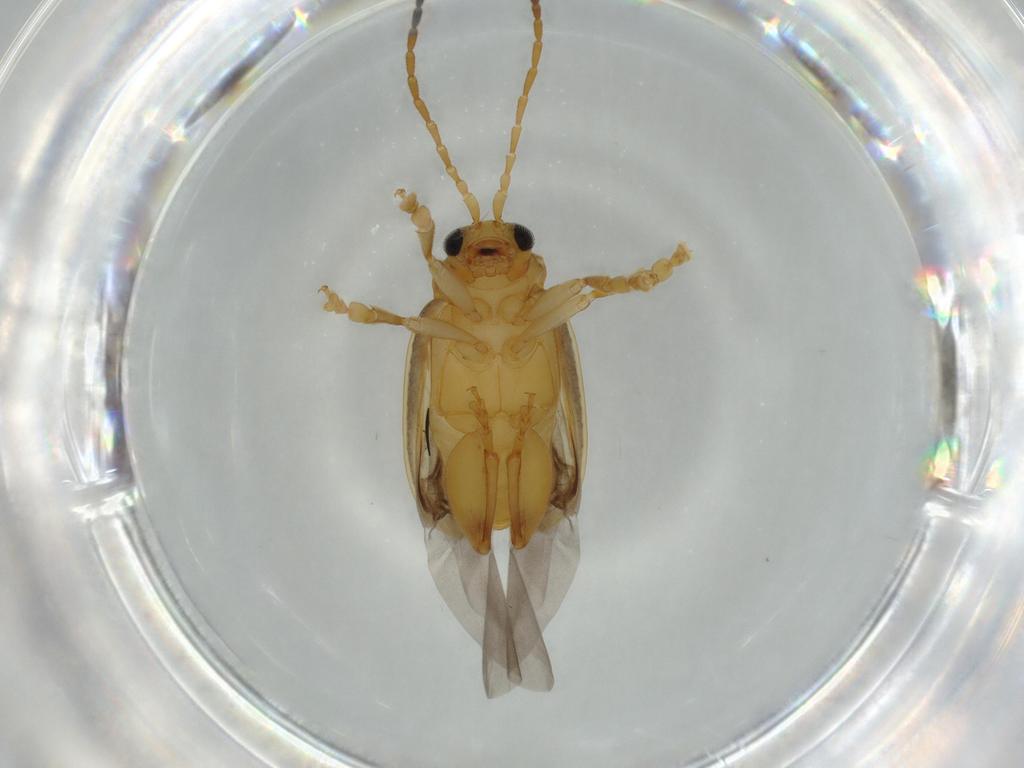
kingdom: Animalia
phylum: Arthropoda
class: Insecta
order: Coleoptera
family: Chrysomelidae
